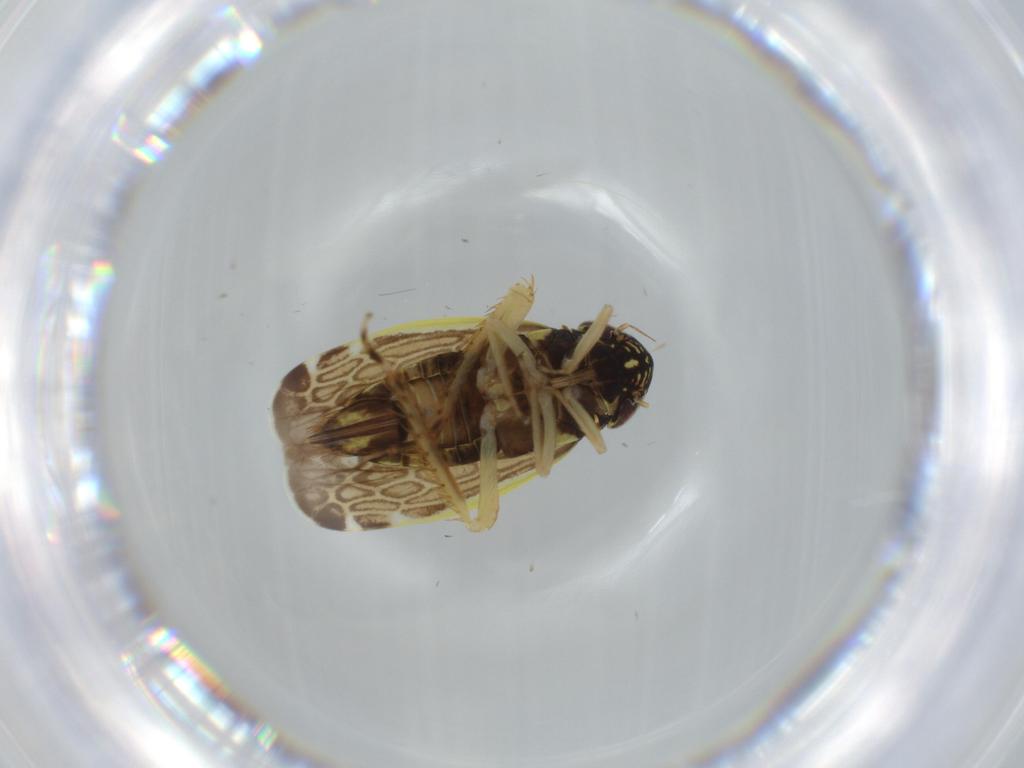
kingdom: Animalia
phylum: Arthropoda
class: Insecta
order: Hemiptera
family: Cicadellidae
